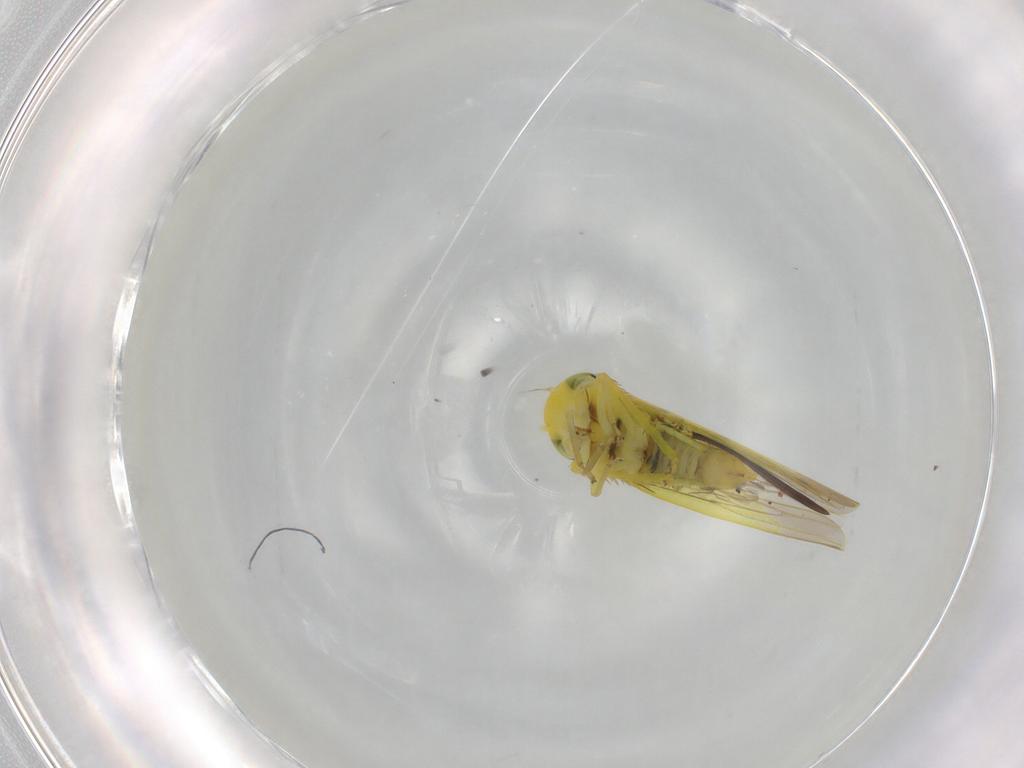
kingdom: Animalia
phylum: Arthropoda
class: Insecta
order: Hemiptera
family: Cicadellidae
